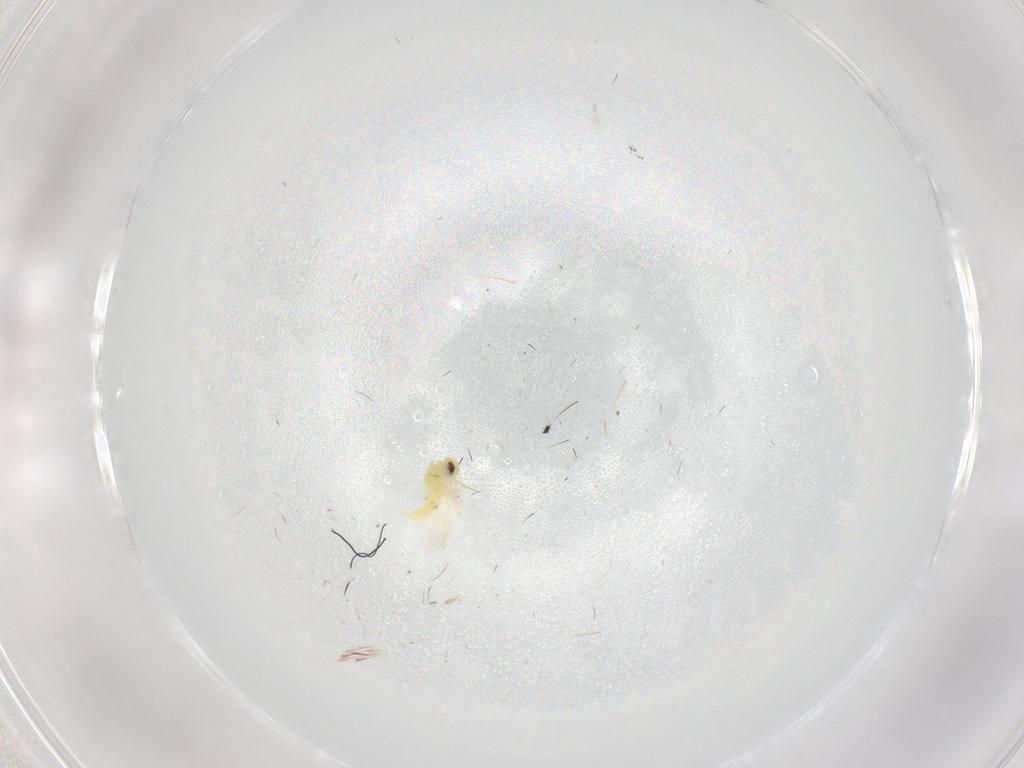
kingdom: Animalia
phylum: Arthropoda
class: Insecta
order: Hemiptera
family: Aleyrodidae
